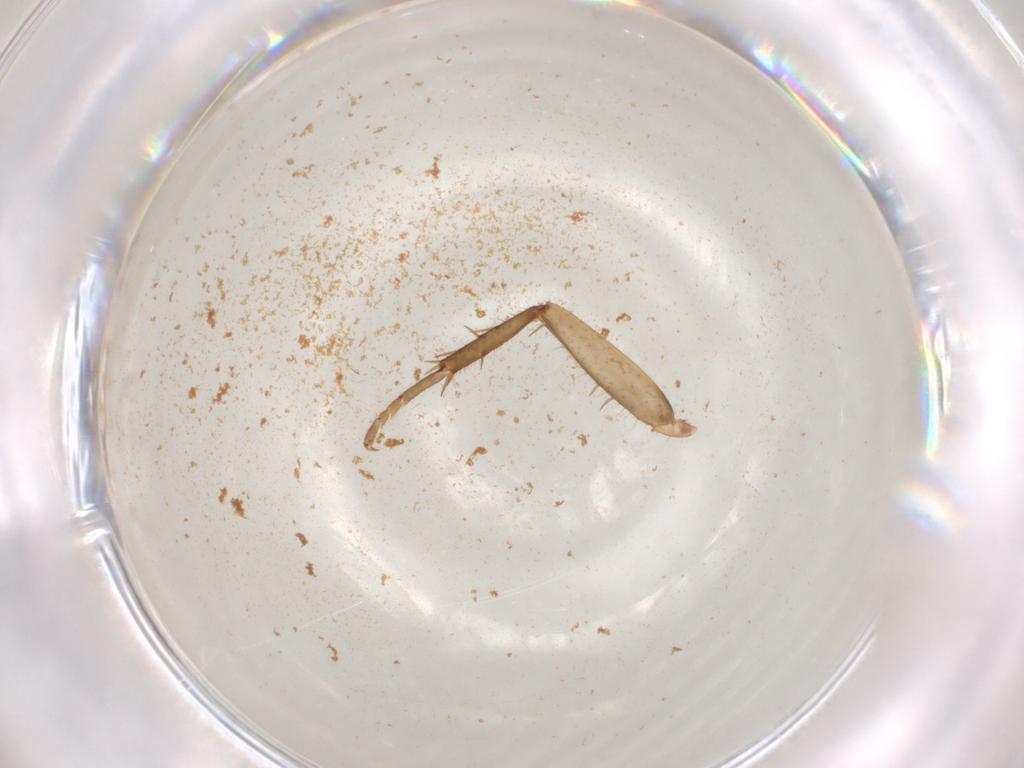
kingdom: Animalia
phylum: Arthropoda
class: Insecta
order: Blattodea
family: Ectobiidae
